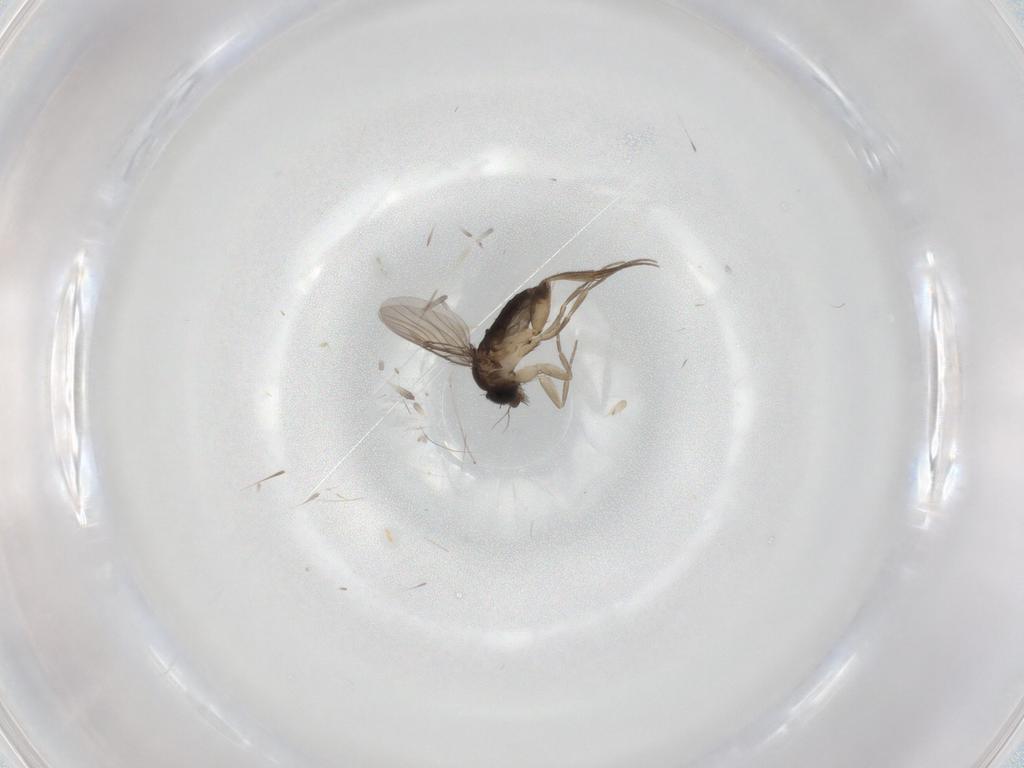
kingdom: Animalia
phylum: Arthropoda
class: Insecta
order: Diptera
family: Phoridae
